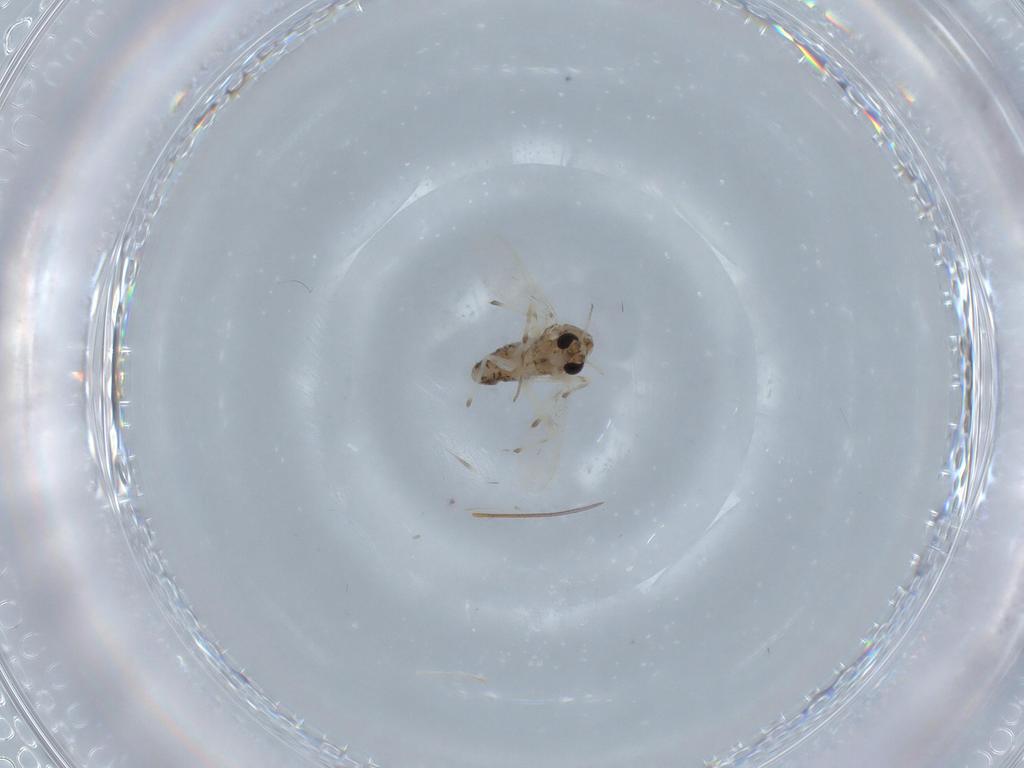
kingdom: Animalia
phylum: Arthropoda
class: Insecta
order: Diptera
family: Cecidomyiidae
